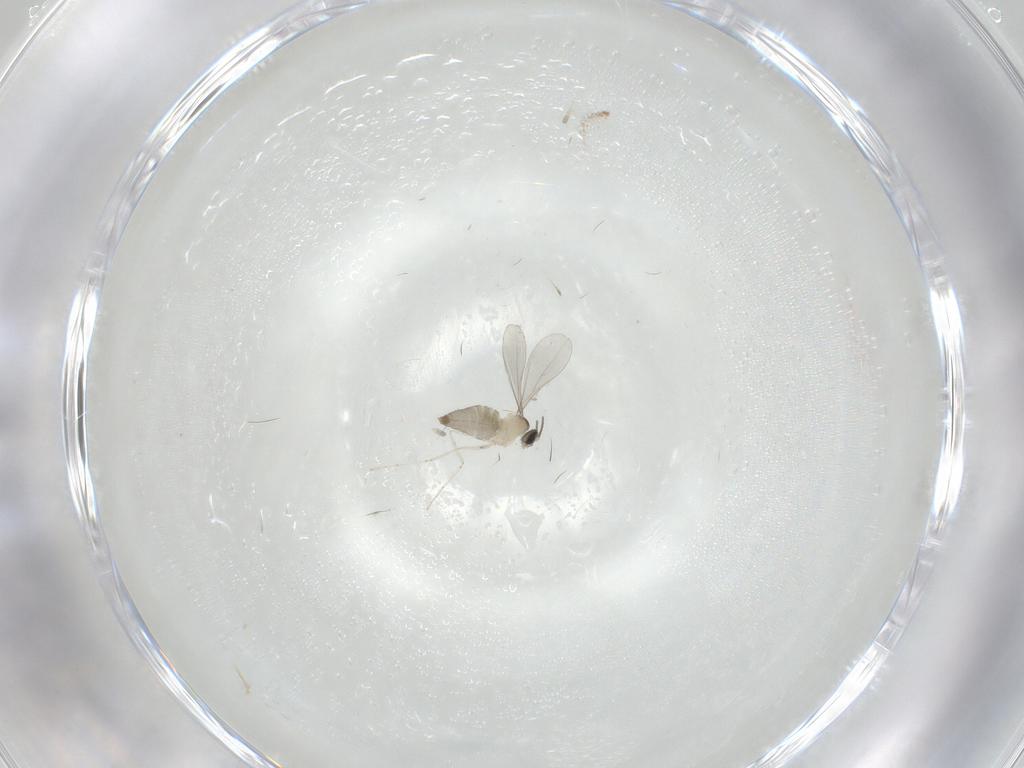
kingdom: Animalia
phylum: Arthropoda
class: Insecta
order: Diptera
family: Cecidomyiidae
